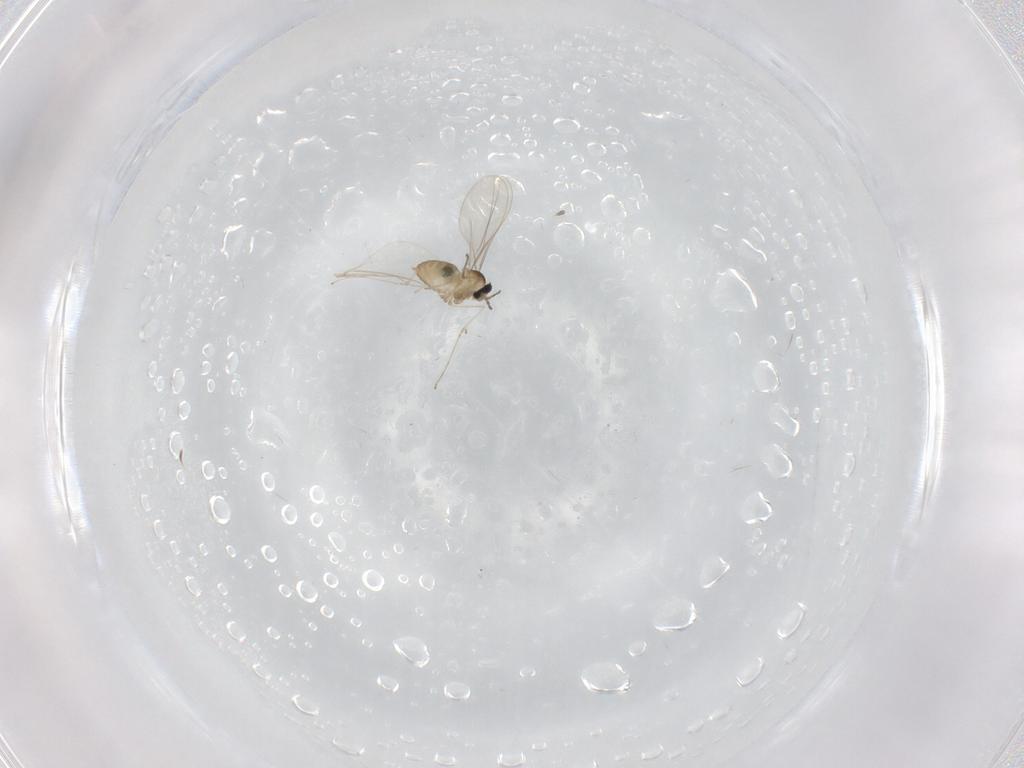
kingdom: Animalia
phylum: Arthropoda
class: Insecta
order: Diptera
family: Cecidomyiidae
